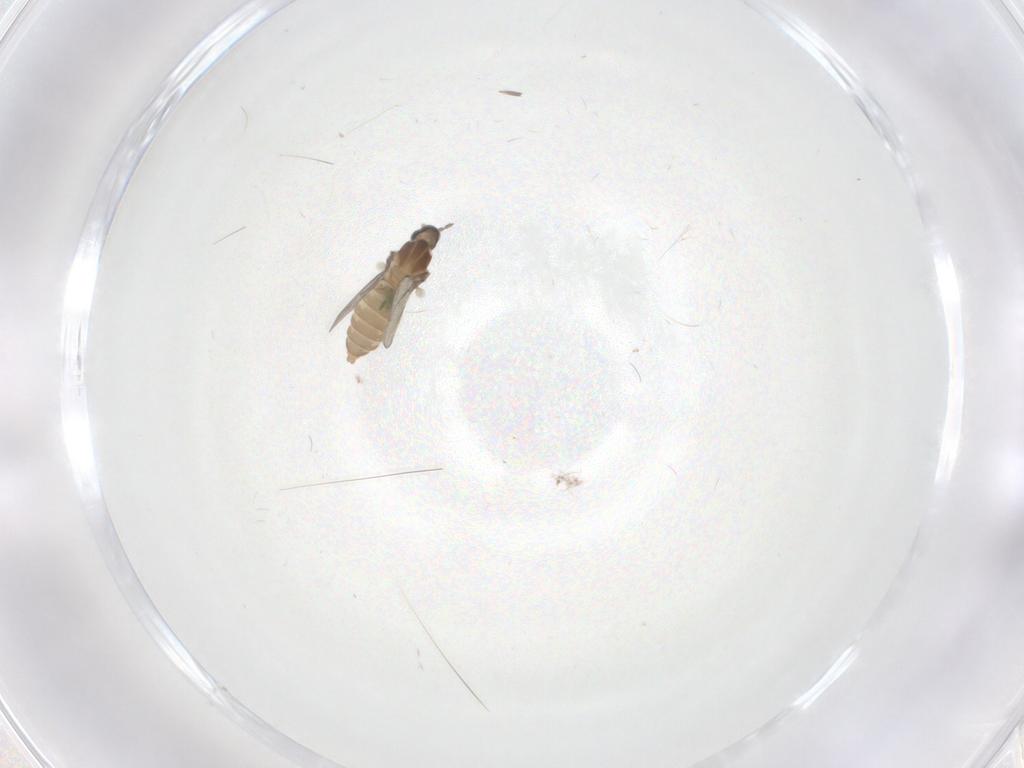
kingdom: Animalia
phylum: Arthropoda
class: Insecta
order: Diptera
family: Cecidomyiidae
